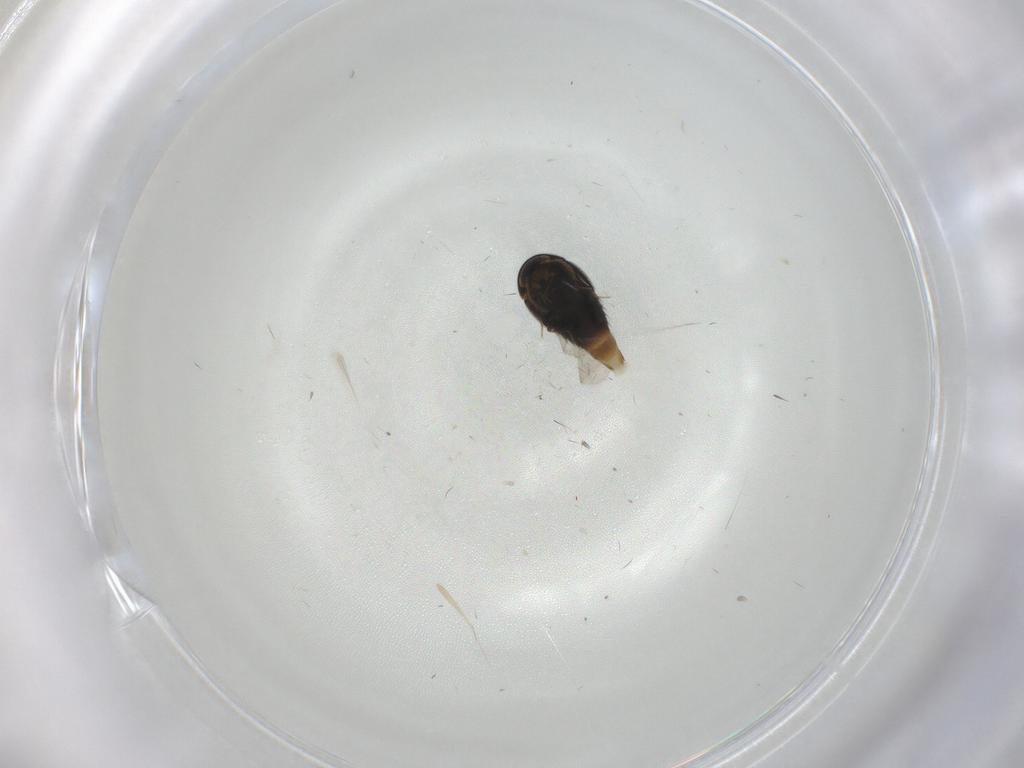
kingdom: Animalia
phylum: Arthropoda
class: Insecta
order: Coleoptera
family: Staphylinidae
